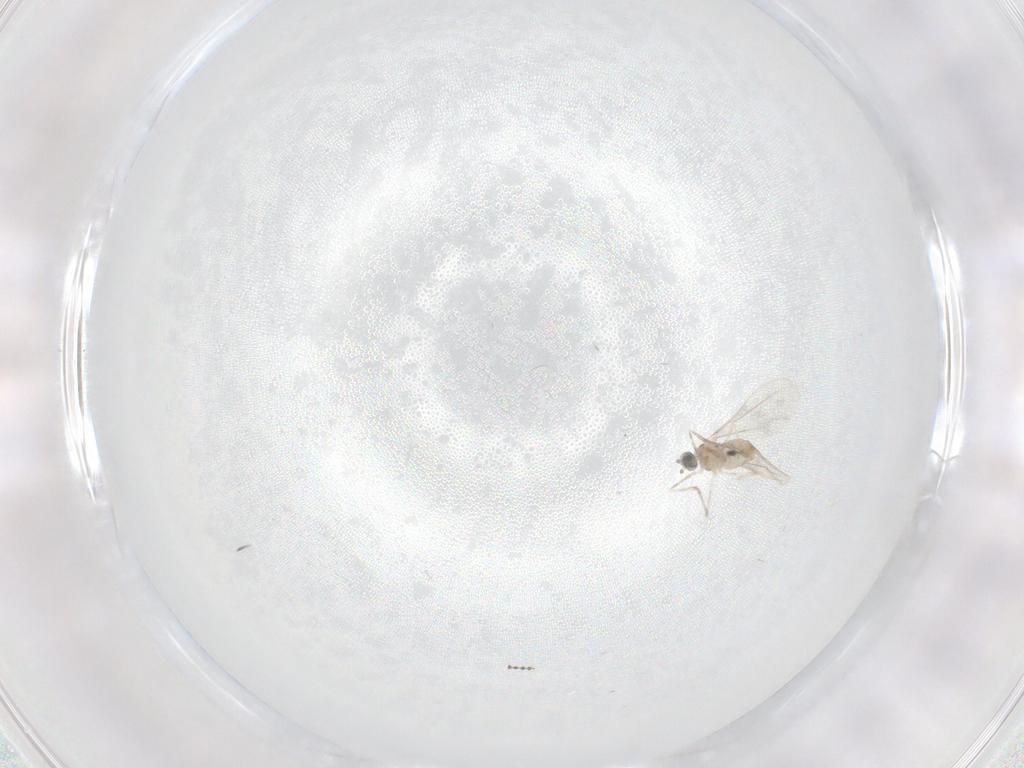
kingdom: Animalia
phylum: Arthropoda
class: Insecta
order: Diptera
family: Cecidomyiidae
